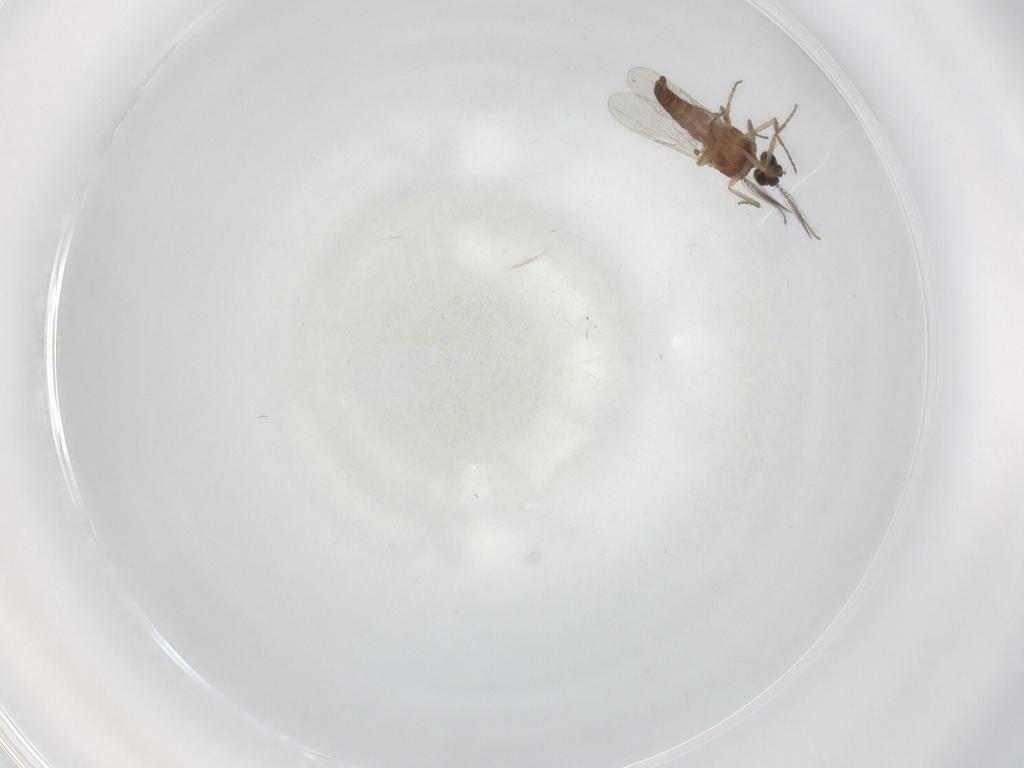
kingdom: Animalia
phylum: Arthropoda
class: Insecta
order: Diptera
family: Ceratopogonidae
